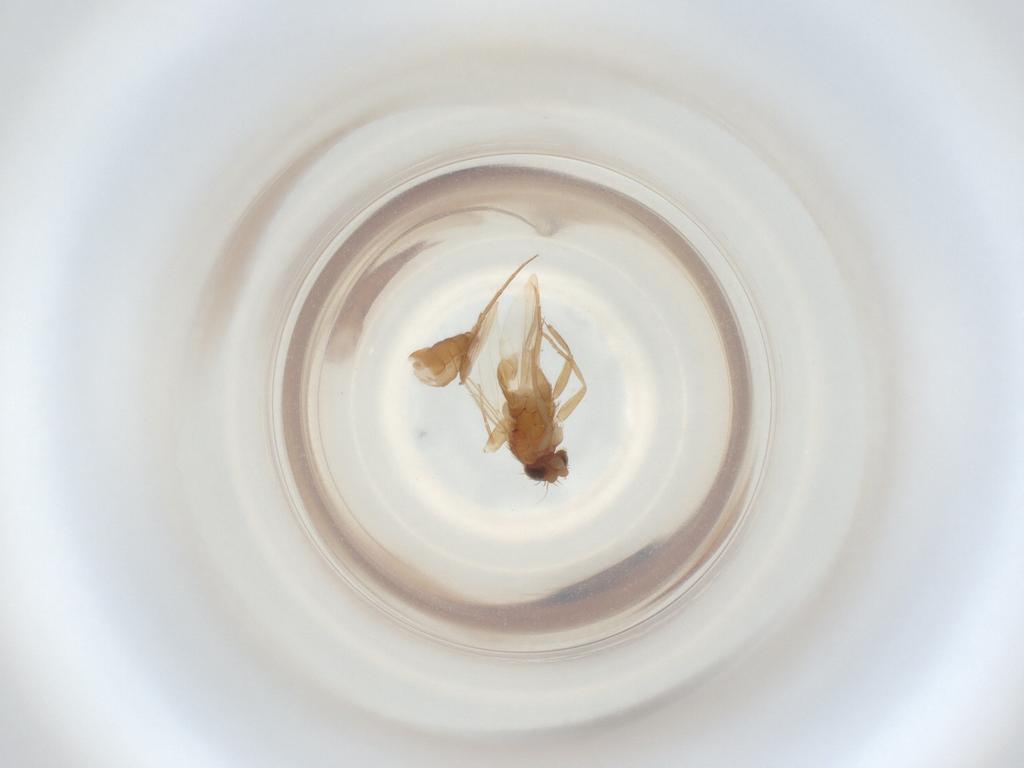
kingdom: Animalia
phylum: Arthropoda
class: Insecta
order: Diptera
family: Phoridae
